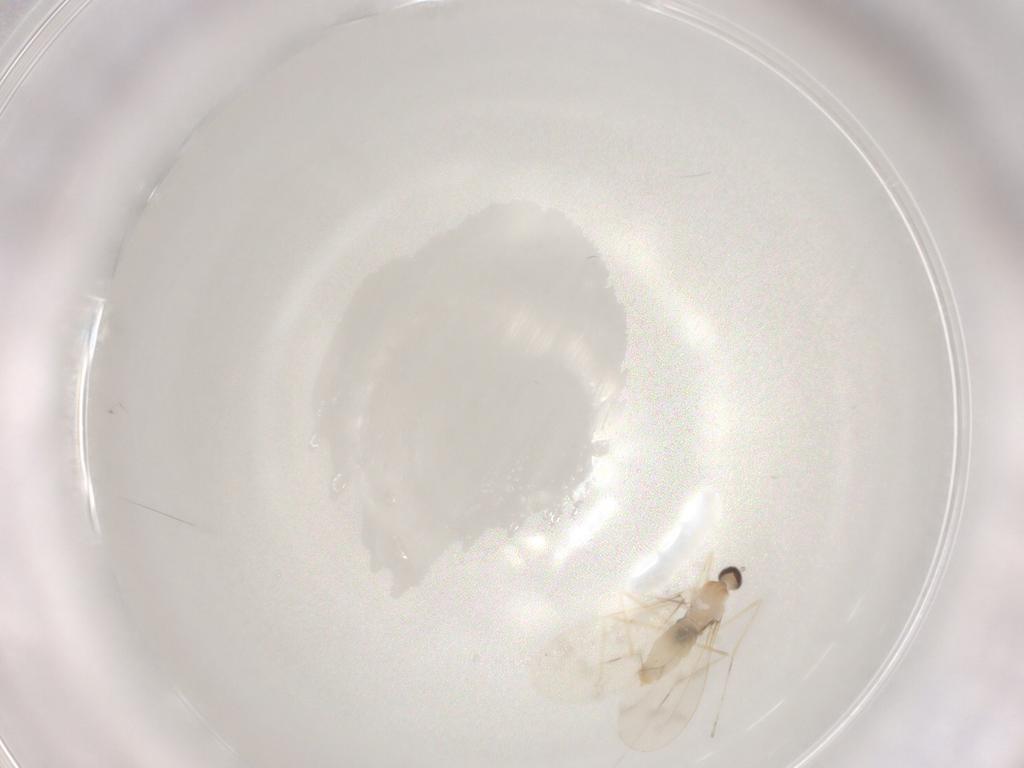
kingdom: Animalia
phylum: Arthropoda
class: Insecta
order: Diptera
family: Cecidomyiidae
